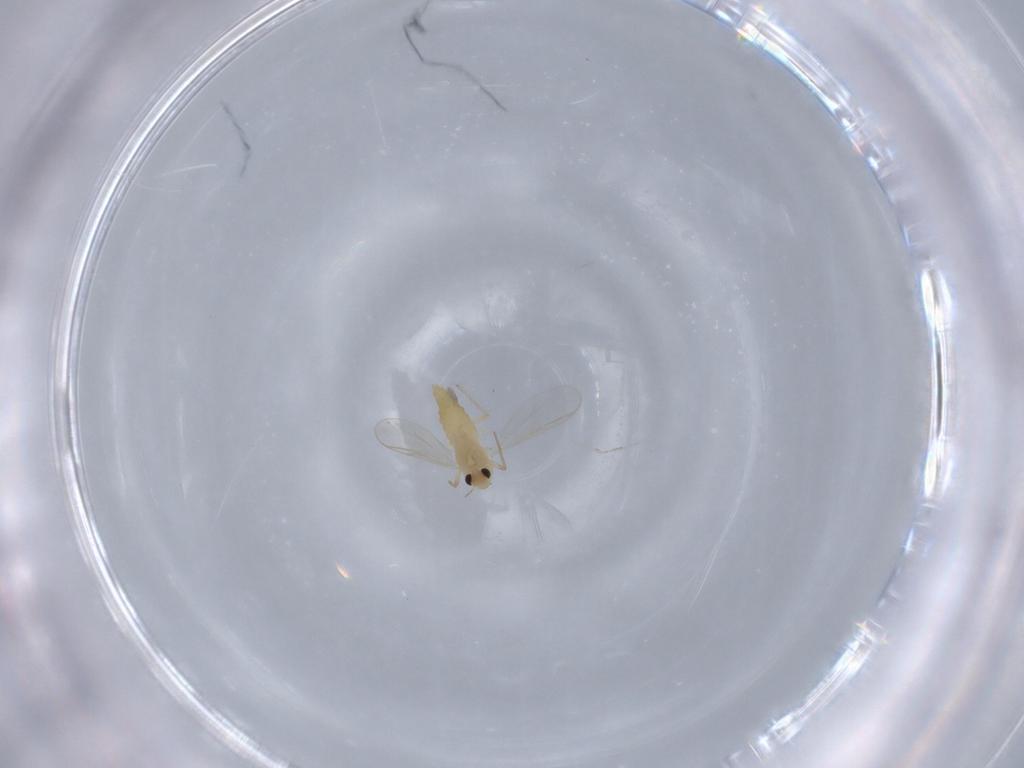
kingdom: Animalia
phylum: Arthropoda
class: Insecta
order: Diptera
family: Chironomidae
